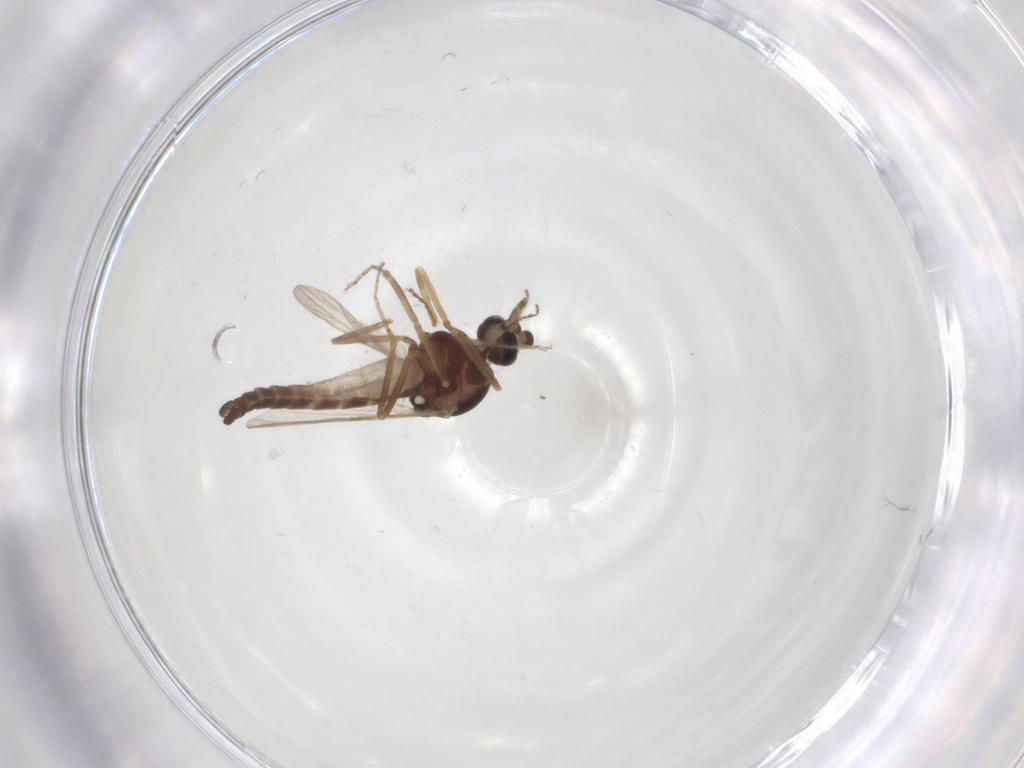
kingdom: Animalia
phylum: Arthropoda
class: Insecta
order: Diptera
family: Ceratopogonidae
